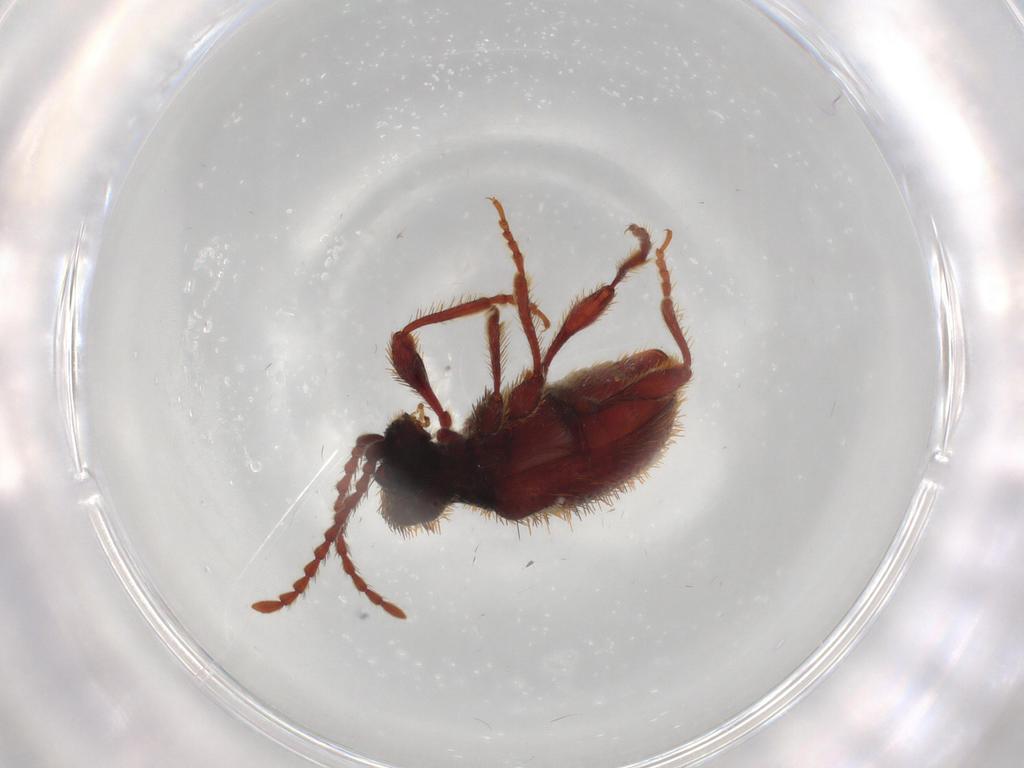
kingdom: Animalia
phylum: Arthropoda
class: Insecta
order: Coleoptera
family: Ptinidae
